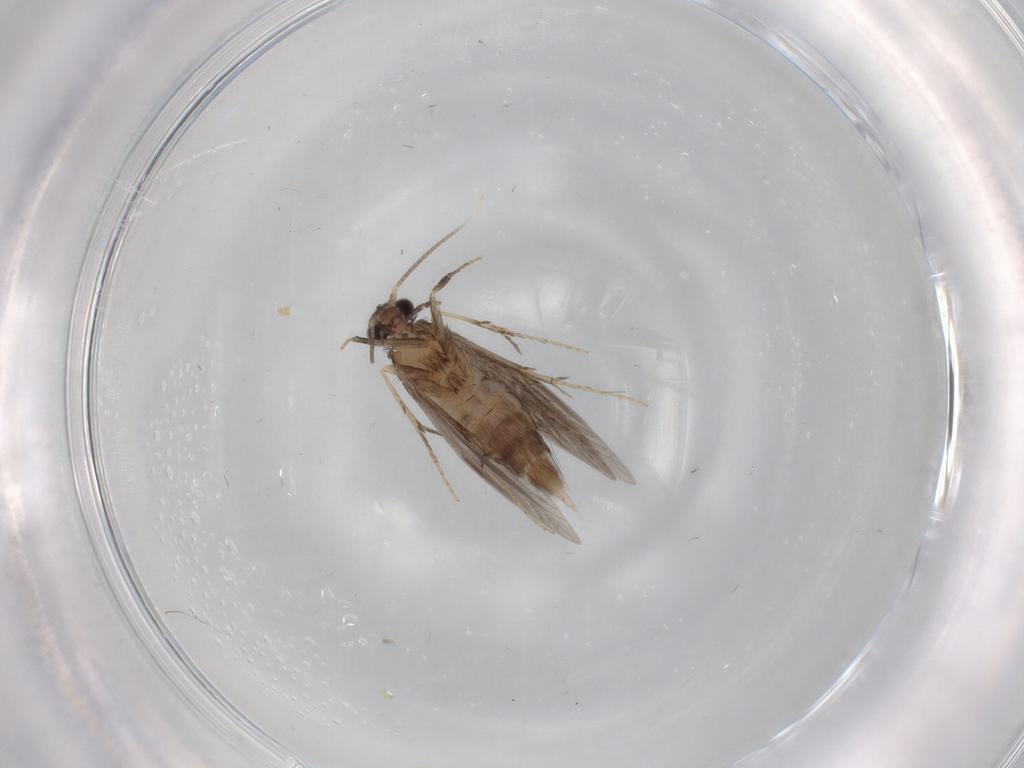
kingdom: Animalia
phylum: Arthropoda
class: Insecta
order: Trichoptera
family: Hydroptilidae
